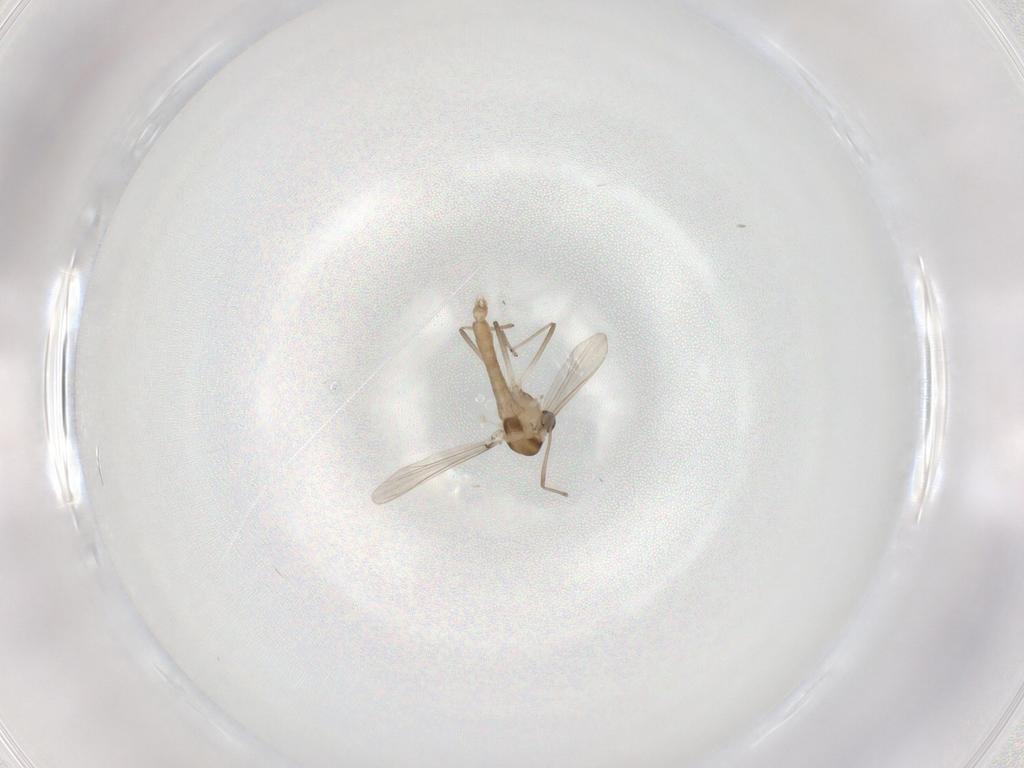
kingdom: Animalia
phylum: Arthropoda
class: Insecta
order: Diptera
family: Chironomidae
